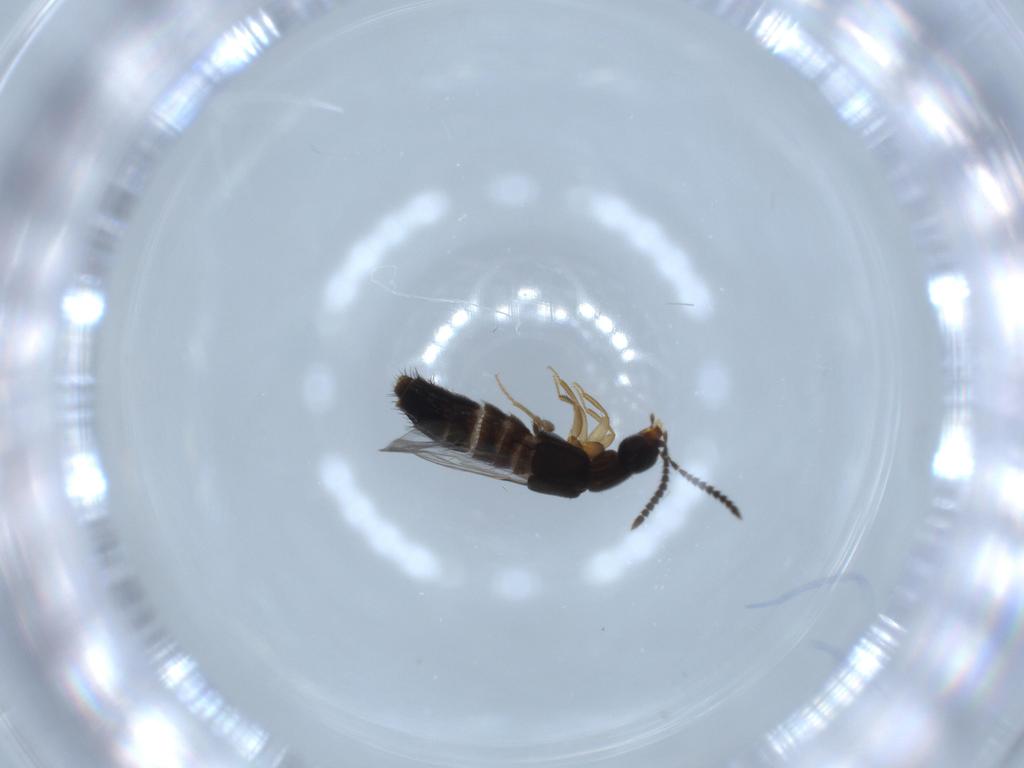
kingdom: Animalia
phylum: Arthropoda
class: Insecta
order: Coleoptera
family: Staphylinidae
